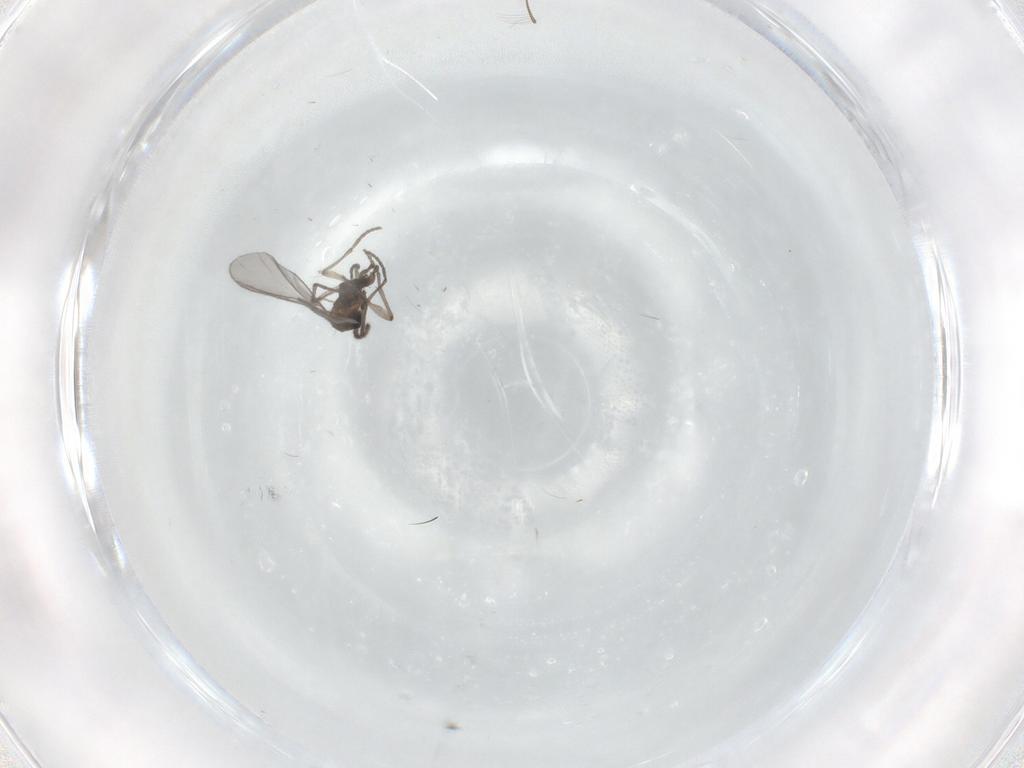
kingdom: Animalia
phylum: Arthropoda
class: Insecta
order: Diptera
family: Sciaridae
